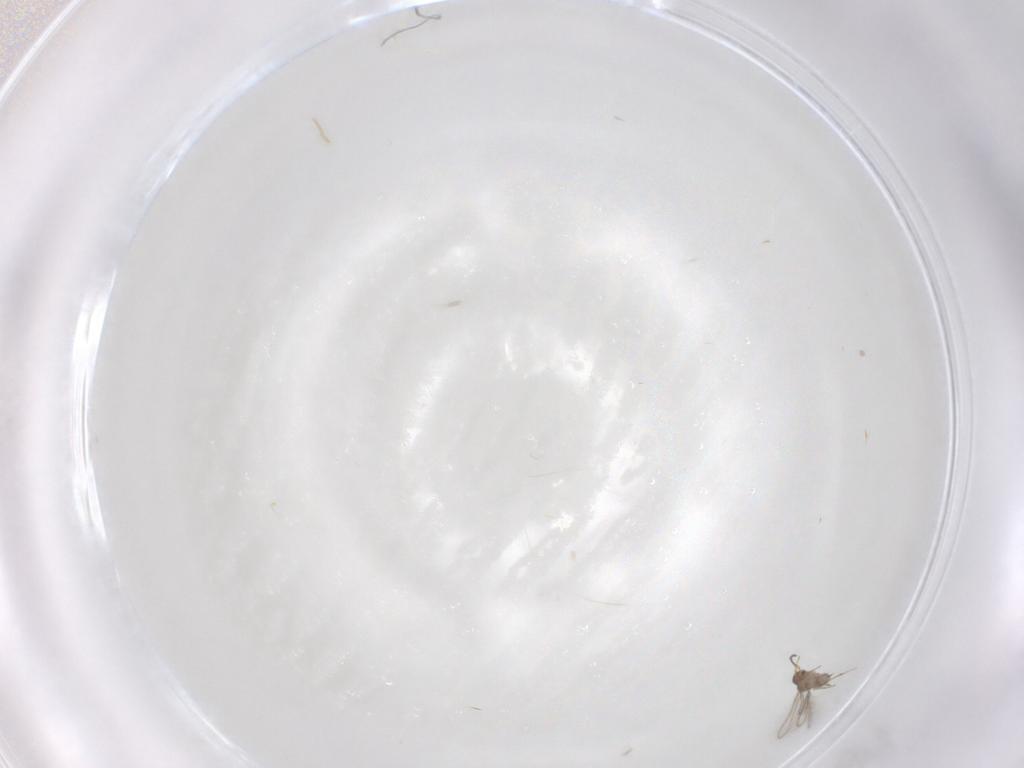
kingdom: Animalia
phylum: Arthropoda
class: Insecta
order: Hymenoptera
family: Mymaridae
